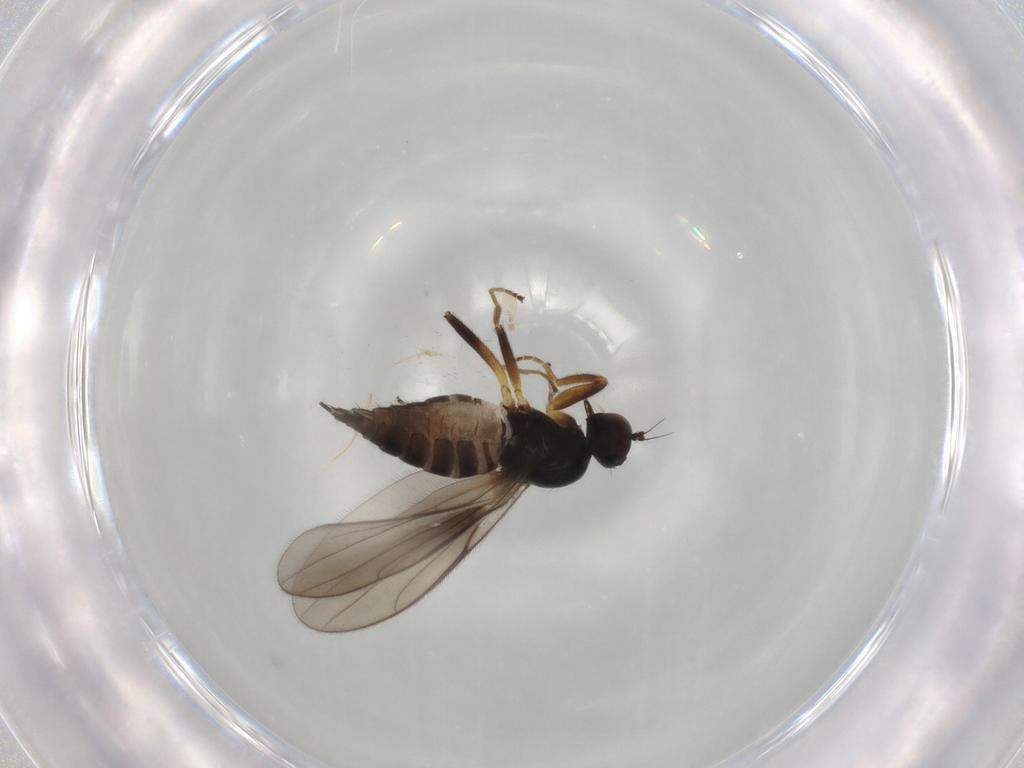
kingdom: Animalia
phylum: Arthropoda
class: Insecta
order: Diptera
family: Hybotidae
